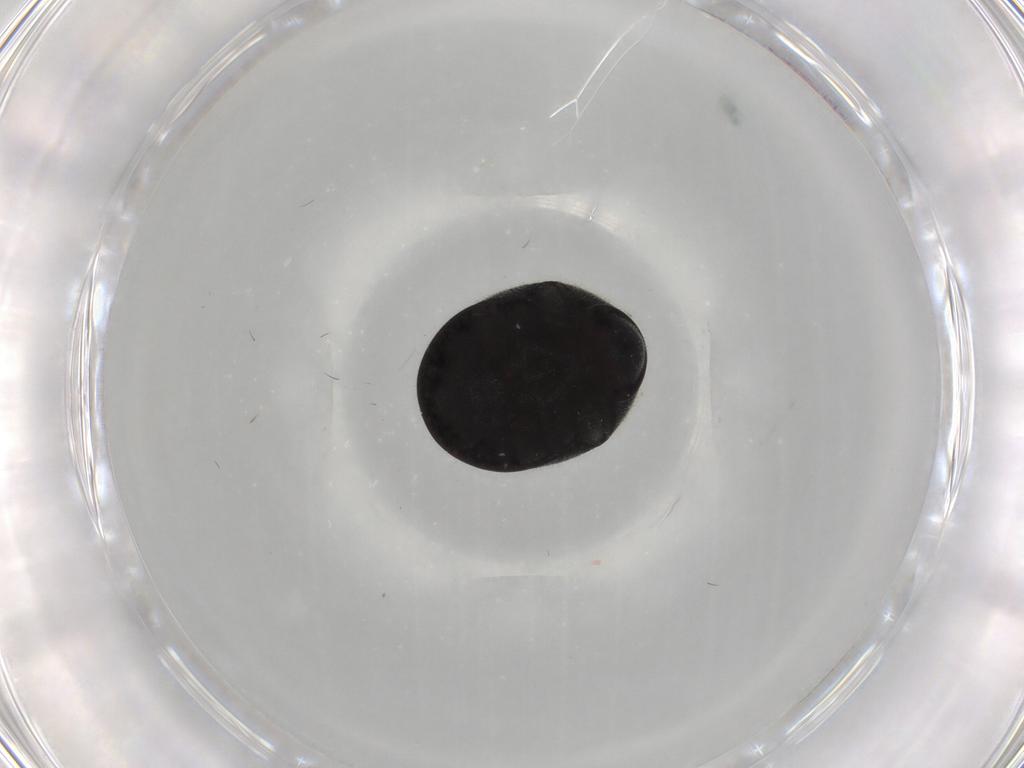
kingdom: Animalia
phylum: Arthropoda
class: Insecta
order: Coleoptera
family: Ptinidae
